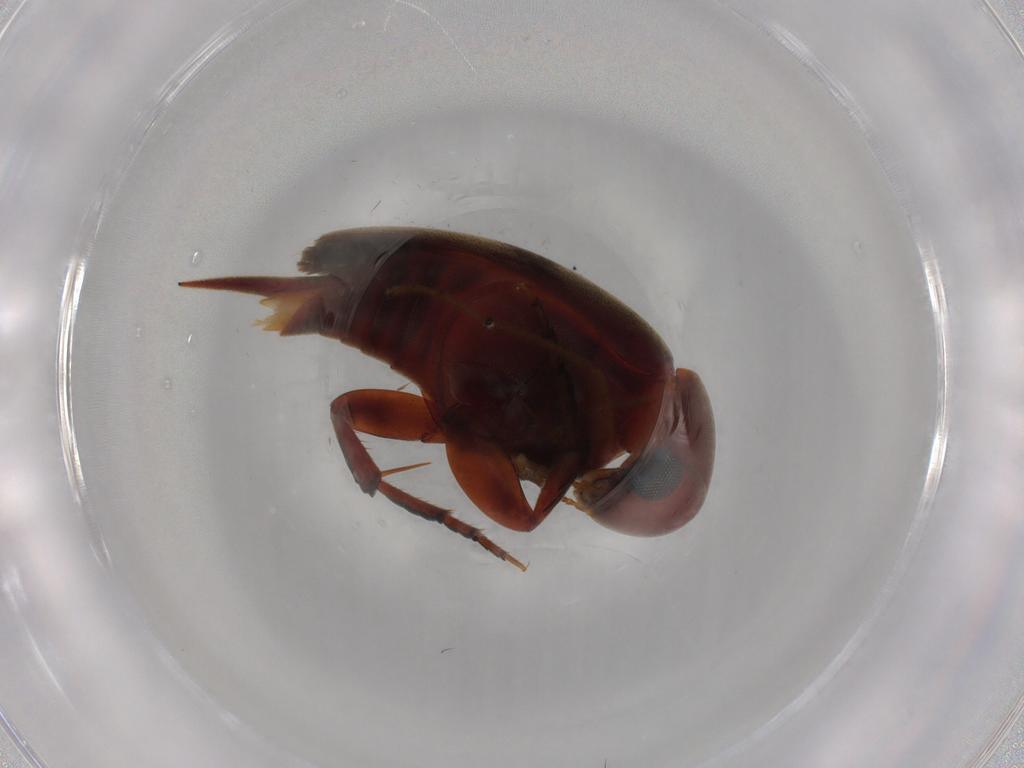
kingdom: Animalia
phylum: Arthropoda
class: Insecta
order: Coleoptera
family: Mordellidae
